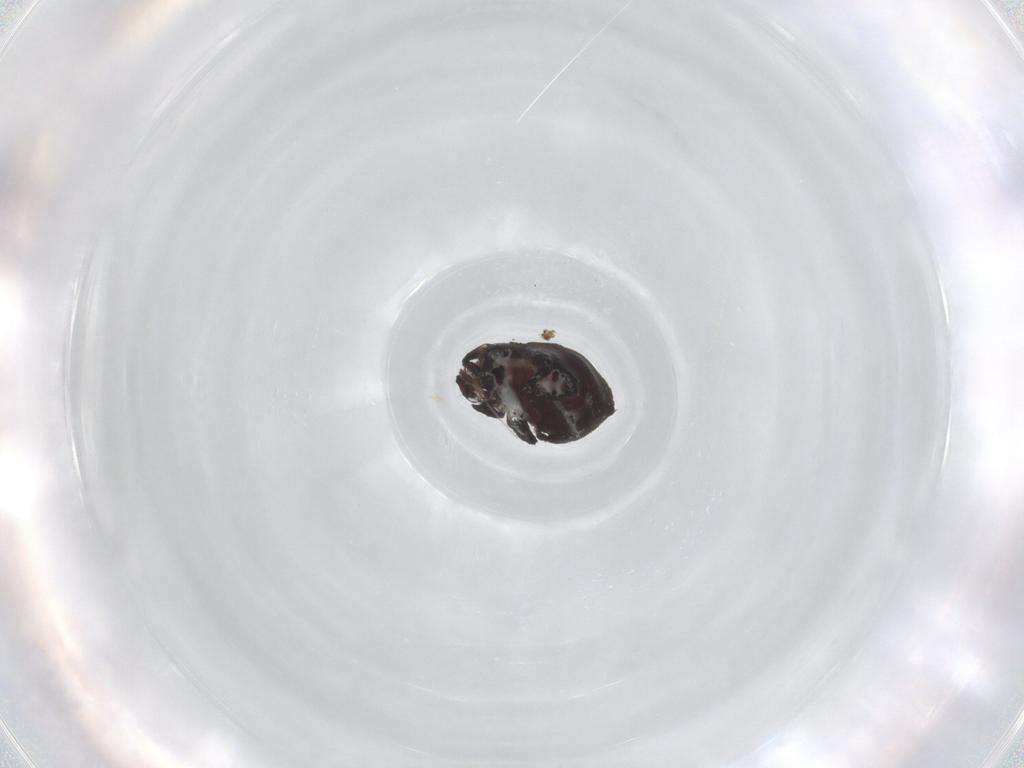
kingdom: Animalia
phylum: Arthropoda
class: Arachnida
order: Sarcoptiformes
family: Neoliodidae
